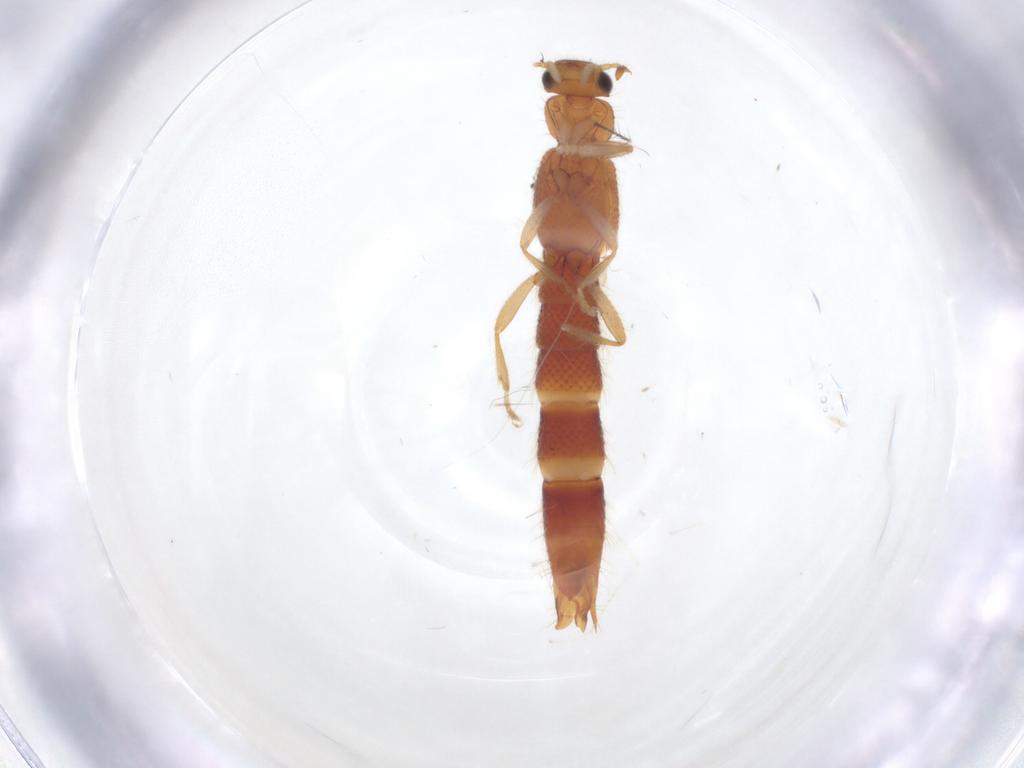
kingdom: Animalia
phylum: Arthropoda
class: Insecta
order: Coleoptera
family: Staphylinidae
